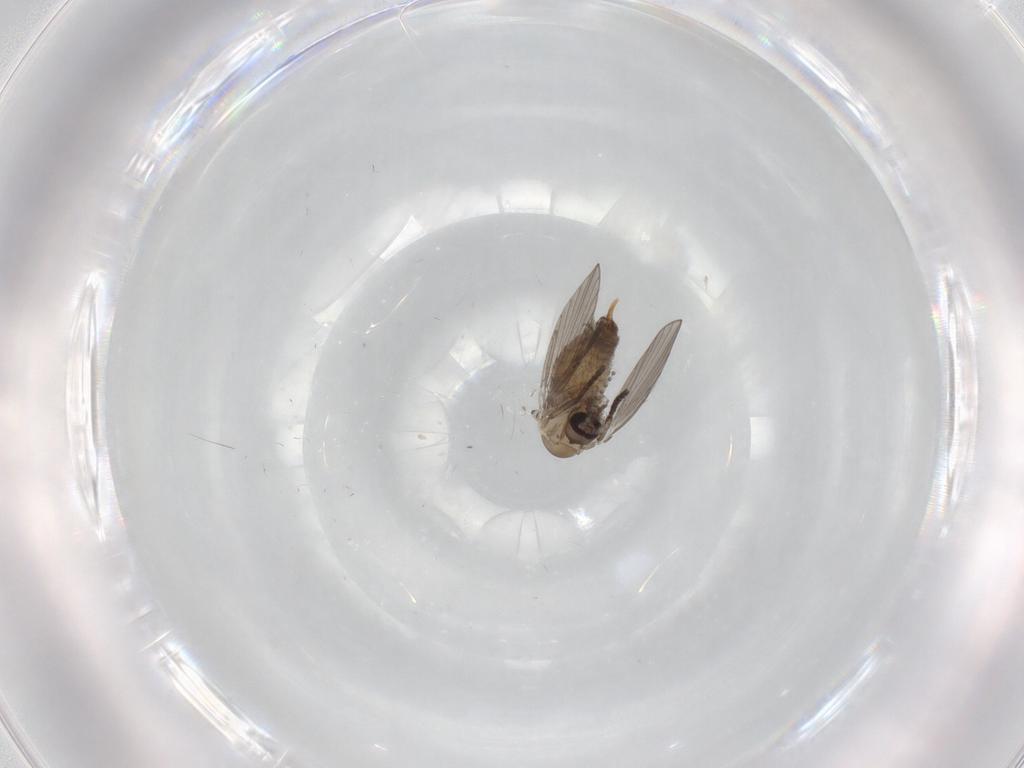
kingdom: Animalia
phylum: Arthropoda
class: Insecta
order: Diptera
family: Psychodidae
